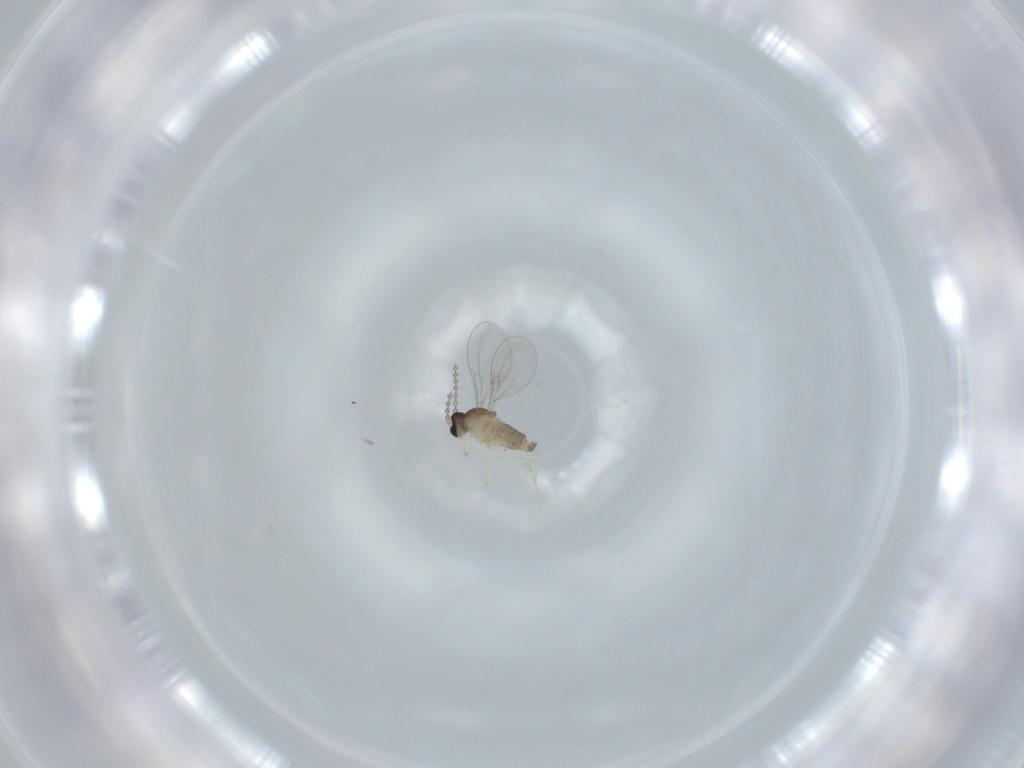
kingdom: Animalia
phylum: Arthropoda
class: Insecta
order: Diptera
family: Cecidomyiidae
